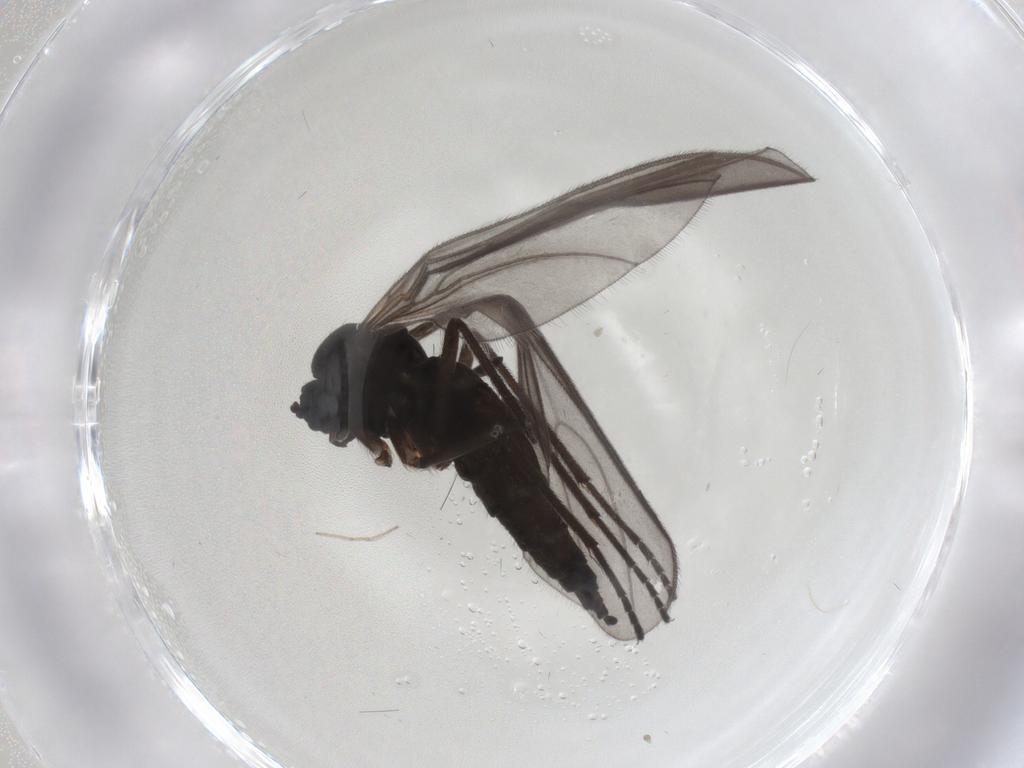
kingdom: Animalia
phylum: Arthropoda
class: Insecta
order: Diptera
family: Sciaridae
